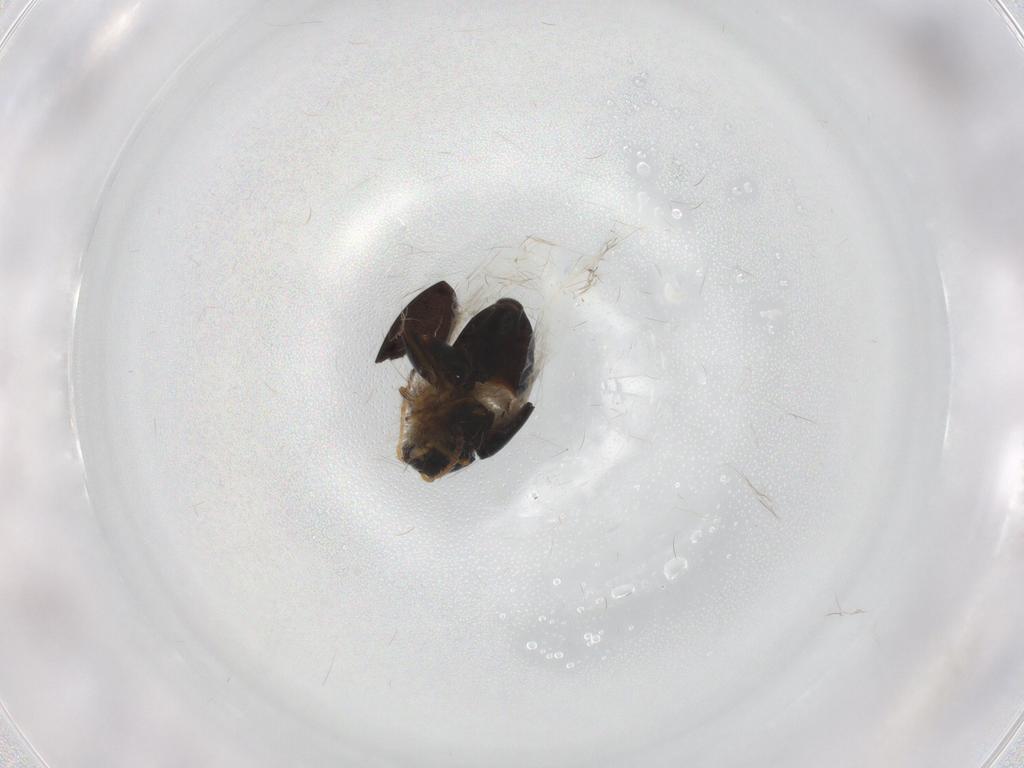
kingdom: Animalia
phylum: Arthropoda
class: Insecta
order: Coleoptera
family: Chrysomelidae
